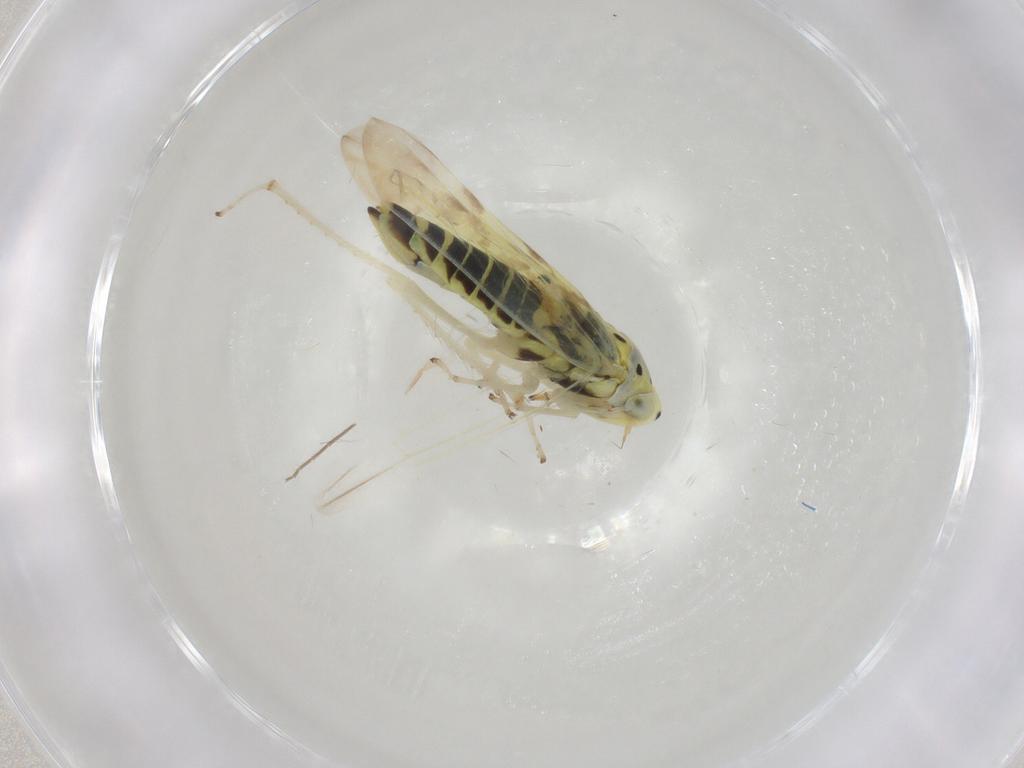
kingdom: Animalia
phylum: Arthropoda
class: Insecta
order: Hemiptera
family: Cicadellidae
